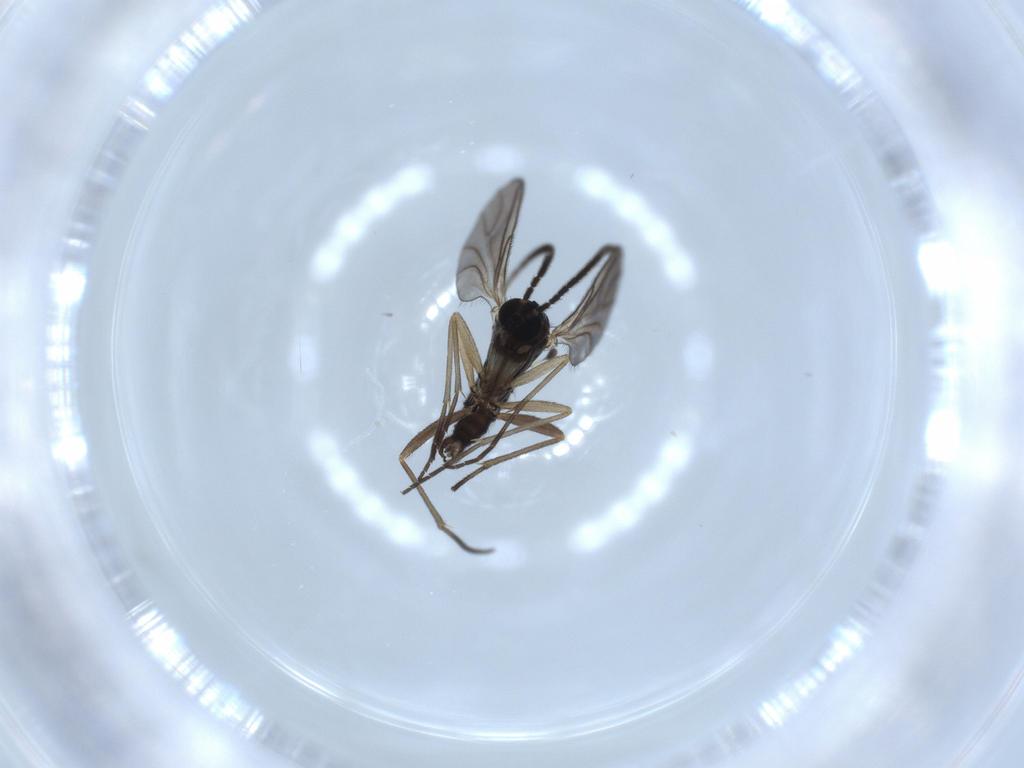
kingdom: Animalia
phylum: Arthropoda
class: Insecta
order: Diptera
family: Sciaridae
